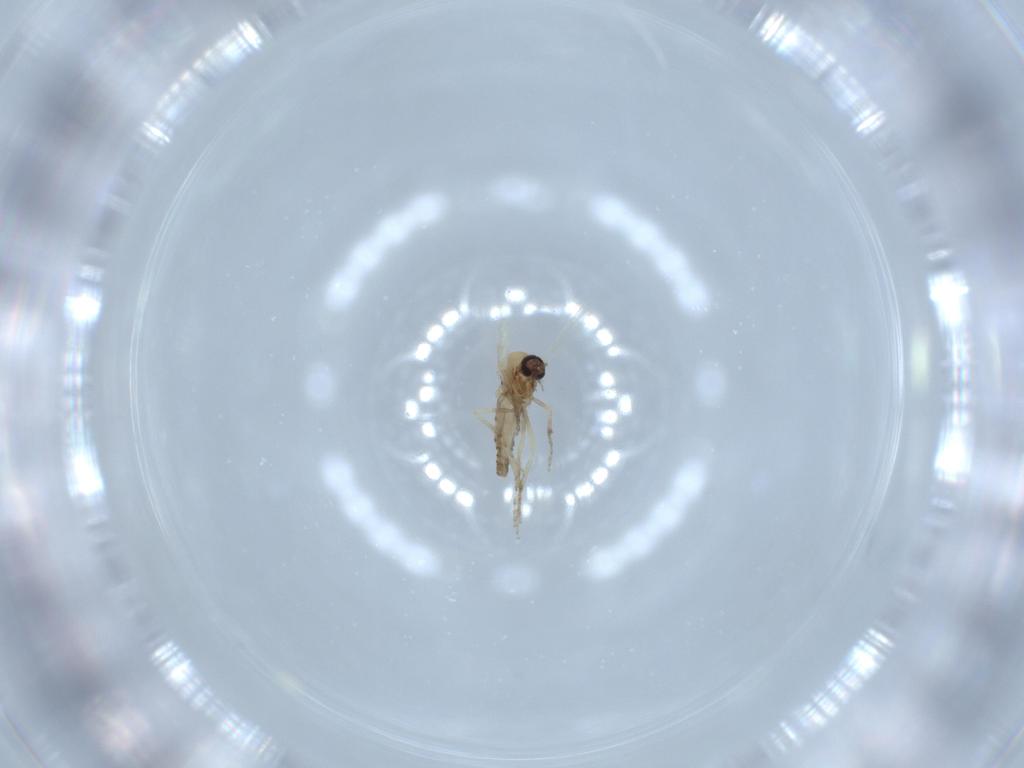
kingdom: Animalia
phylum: Arthropoda
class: Insecta
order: Diptera
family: Ceratopogonidae
